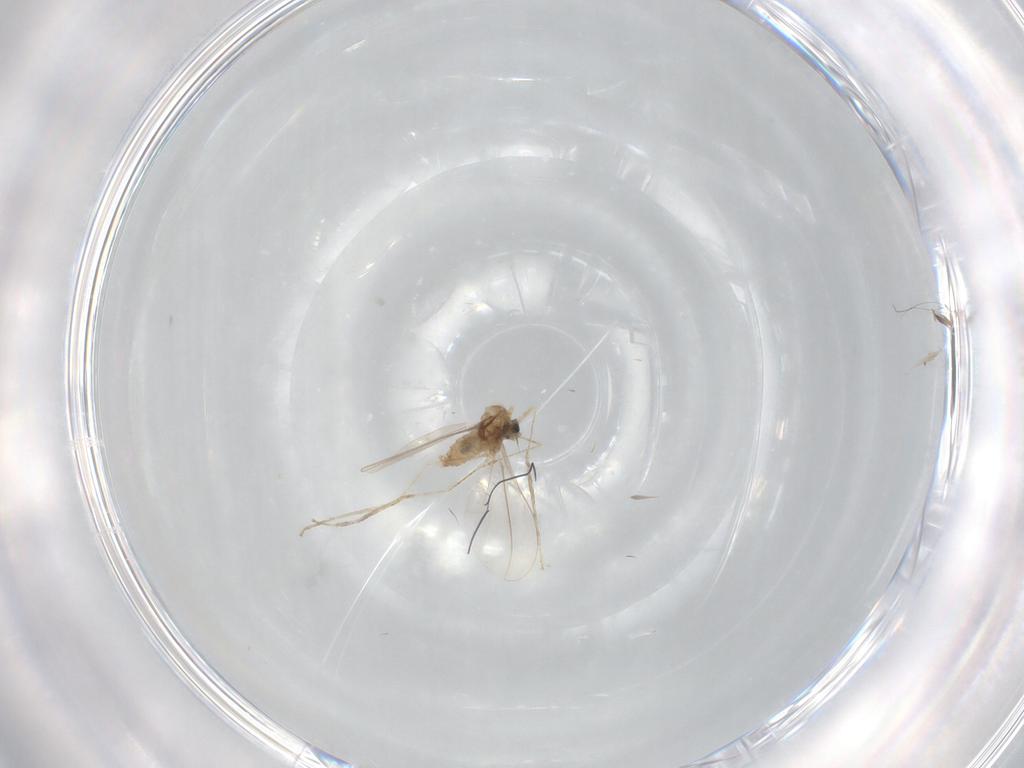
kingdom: Animalia
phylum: Arthropoda
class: Insecta
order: Diptera
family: Cecidomyiidae
